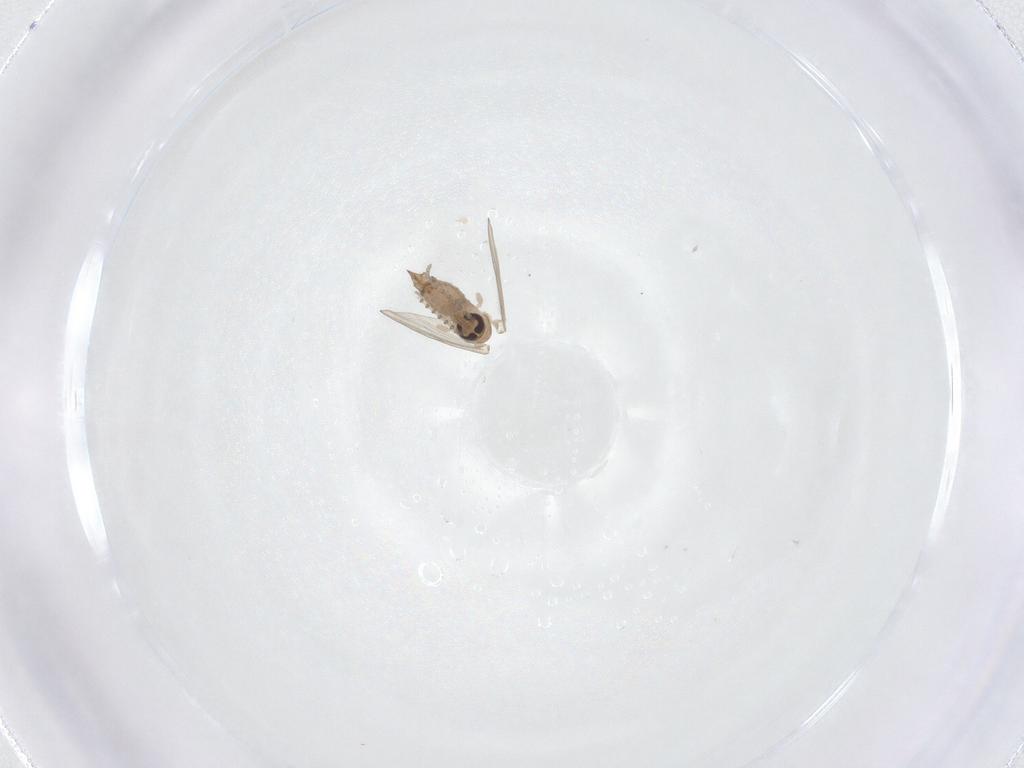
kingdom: Animalia
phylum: Arthropoda
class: Insecta
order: Diptera
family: Psychodidae
